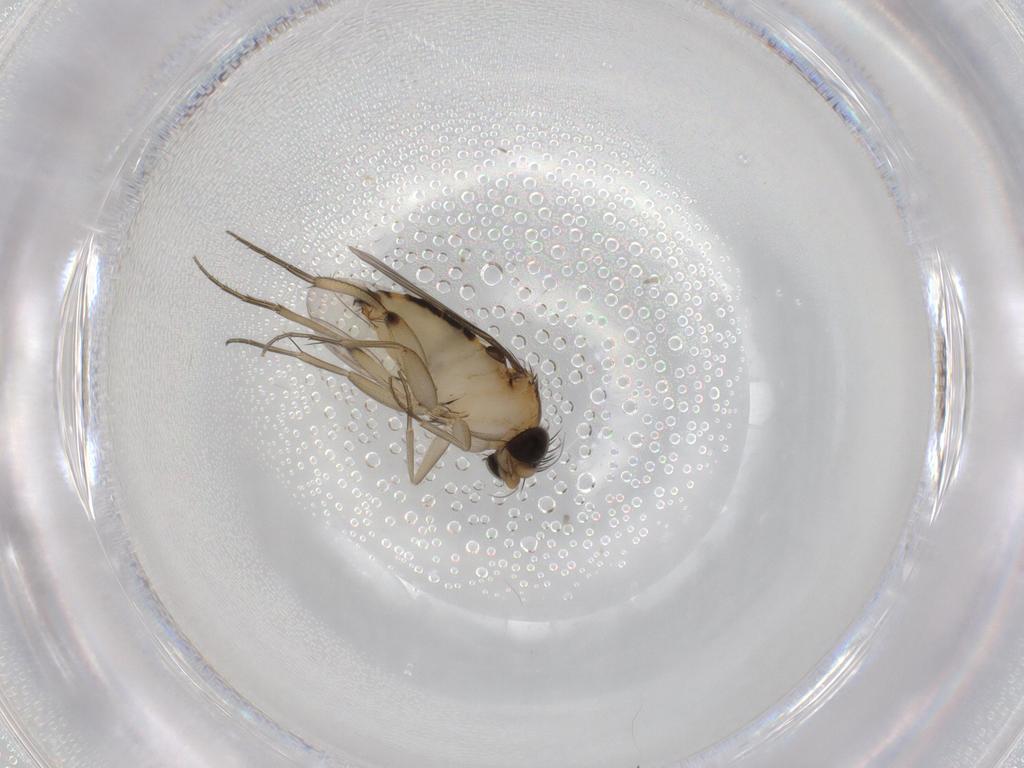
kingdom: Animalia
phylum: Arthropoda
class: Insecta
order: Diptera
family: Phoridae
